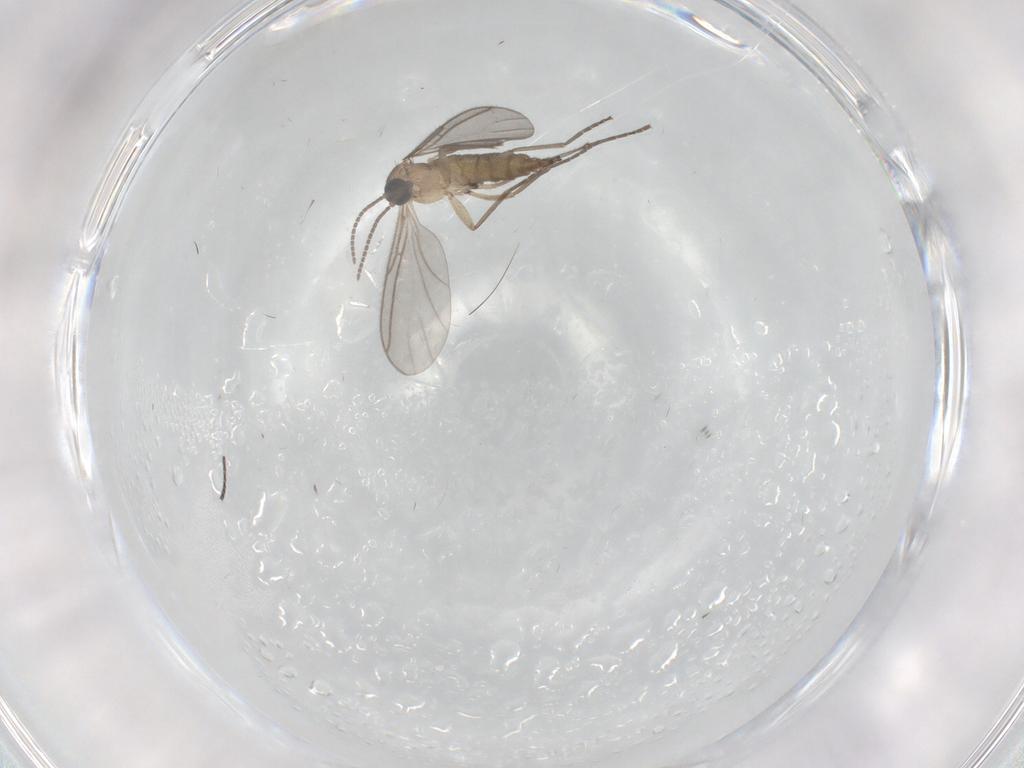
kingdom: Animalia
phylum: Arthropoda
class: Insecta
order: Diptera
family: Sciaridae
